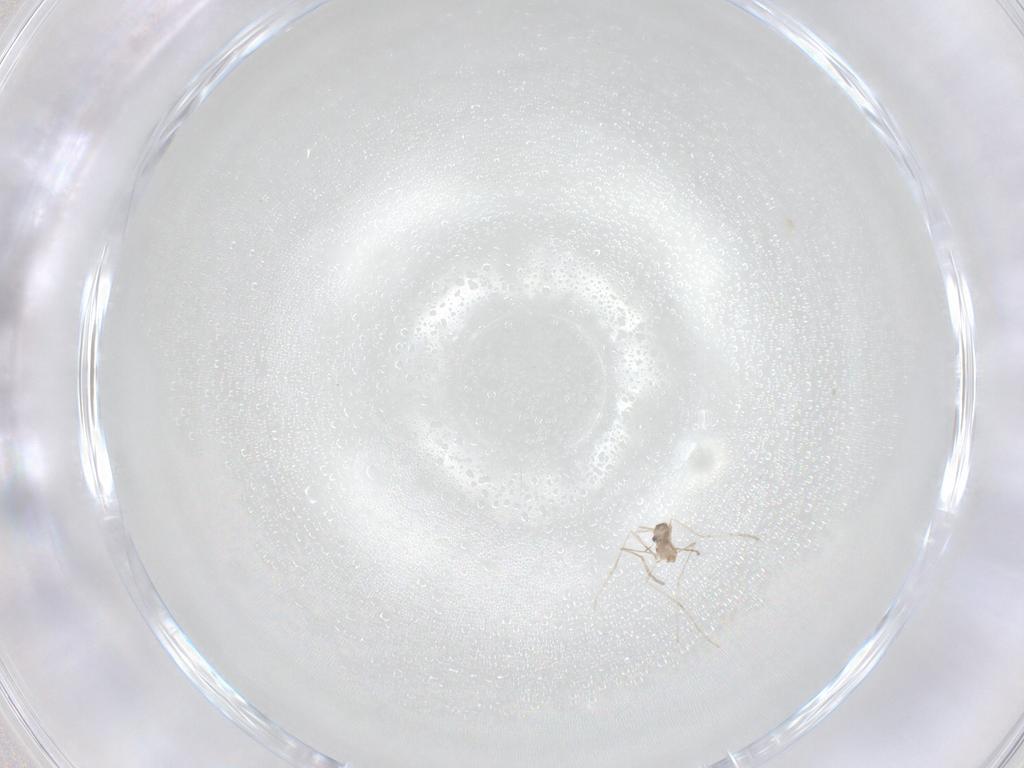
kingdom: Animalia
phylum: Arthropoda
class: Insecta
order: Diptera
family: Cecidomyiidae
